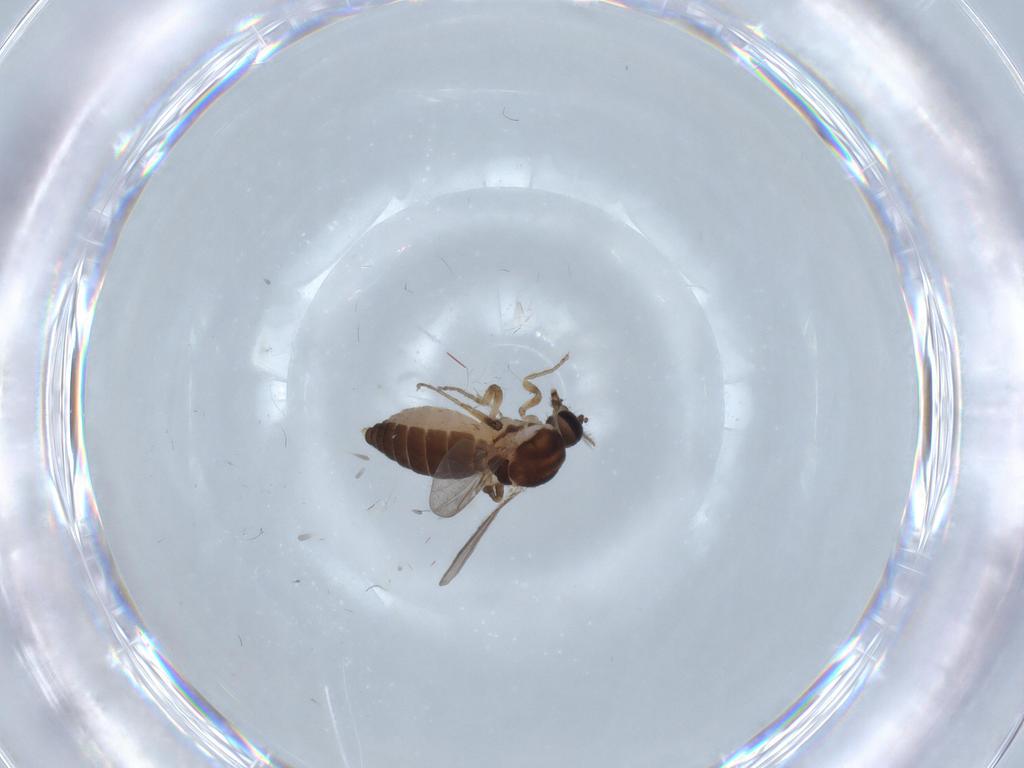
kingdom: Animalia
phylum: Arthropoda
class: Insecta
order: Diptera
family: Ceratopogonidae
